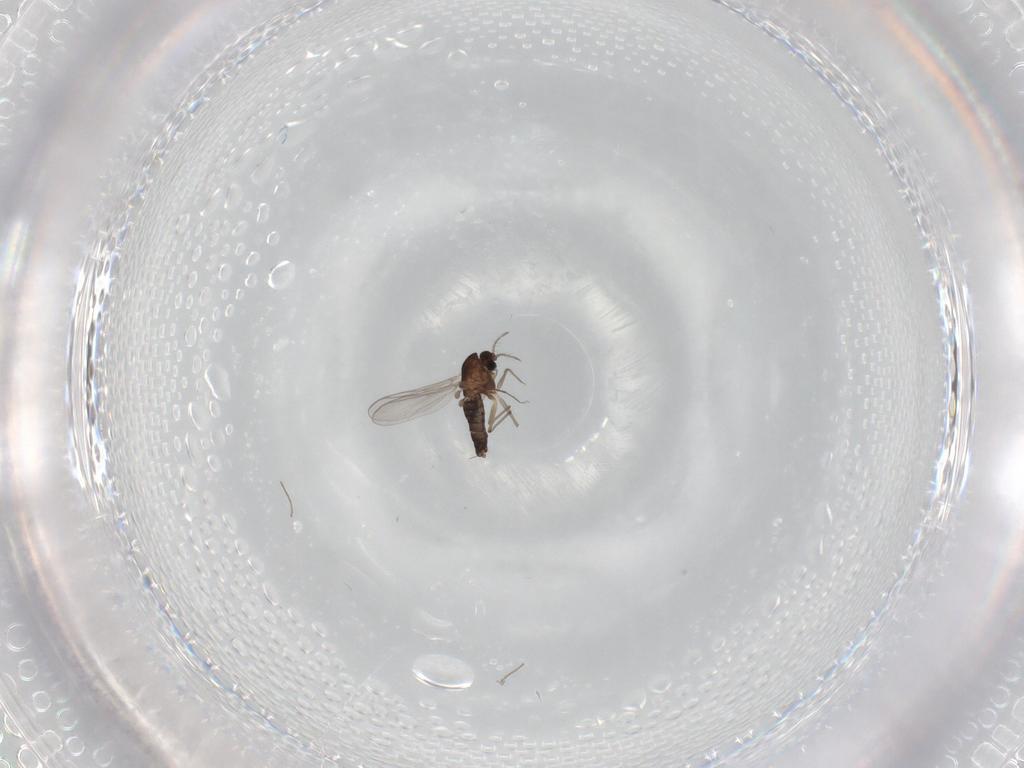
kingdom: Animalia
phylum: Arthropoda
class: Insecta
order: Diptera
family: Chironomidae
